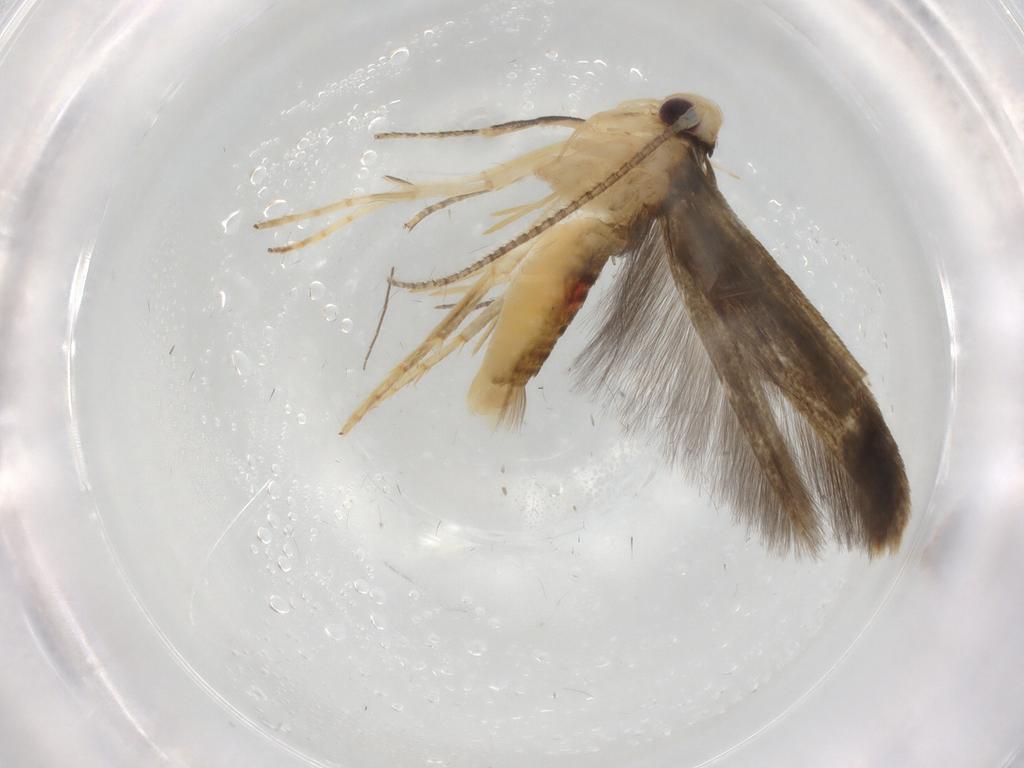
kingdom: Animalia
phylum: Arthropoda
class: Insecta
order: Lepidoptera
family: Stathmopodidae
